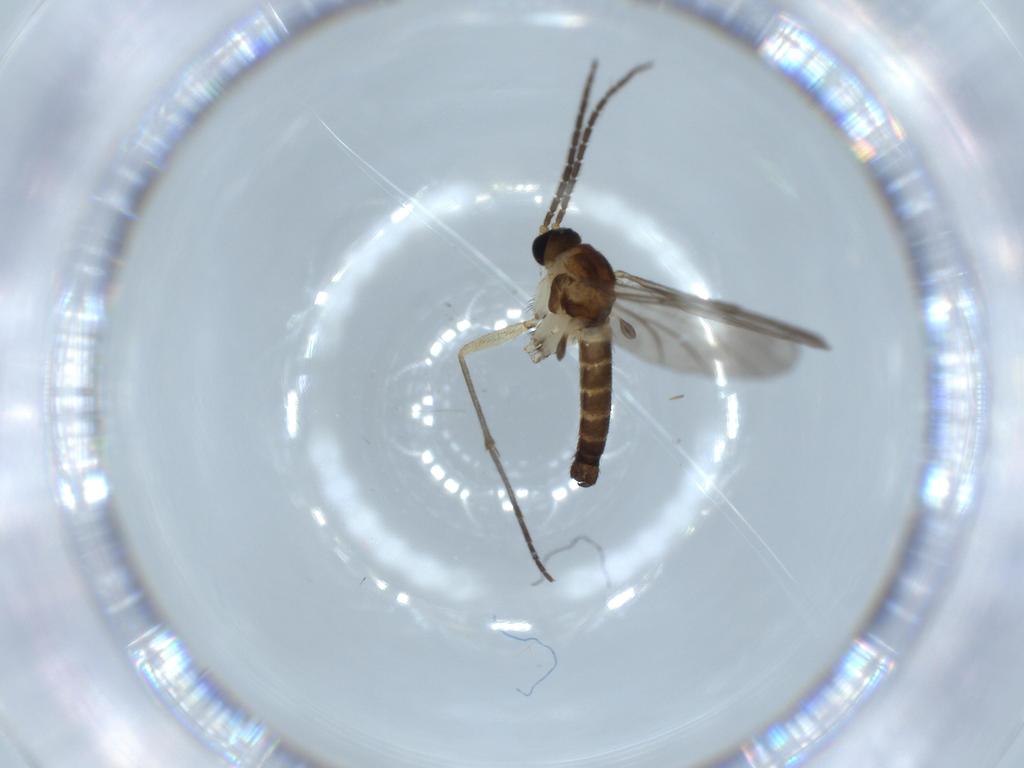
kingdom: Animalia
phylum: Arthropoda
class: Insecta
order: Diptera
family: Sciaridae
